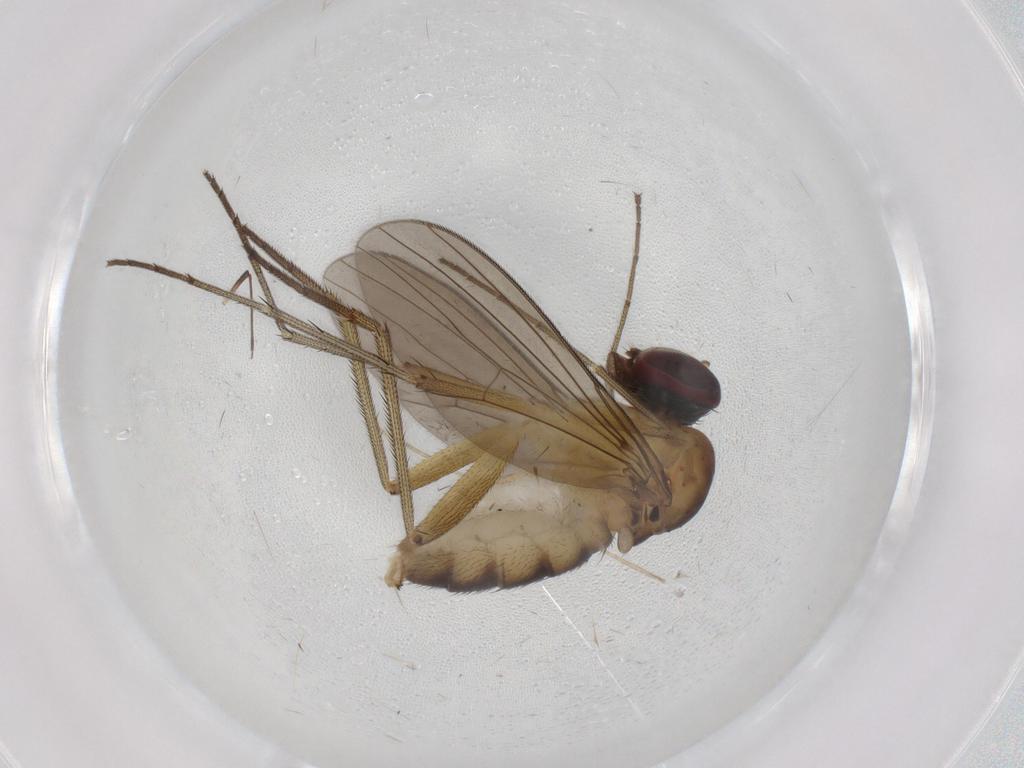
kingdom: Animalia
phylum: Arthropoda
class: Insecta
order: Diptera
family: Dolichopodidae
